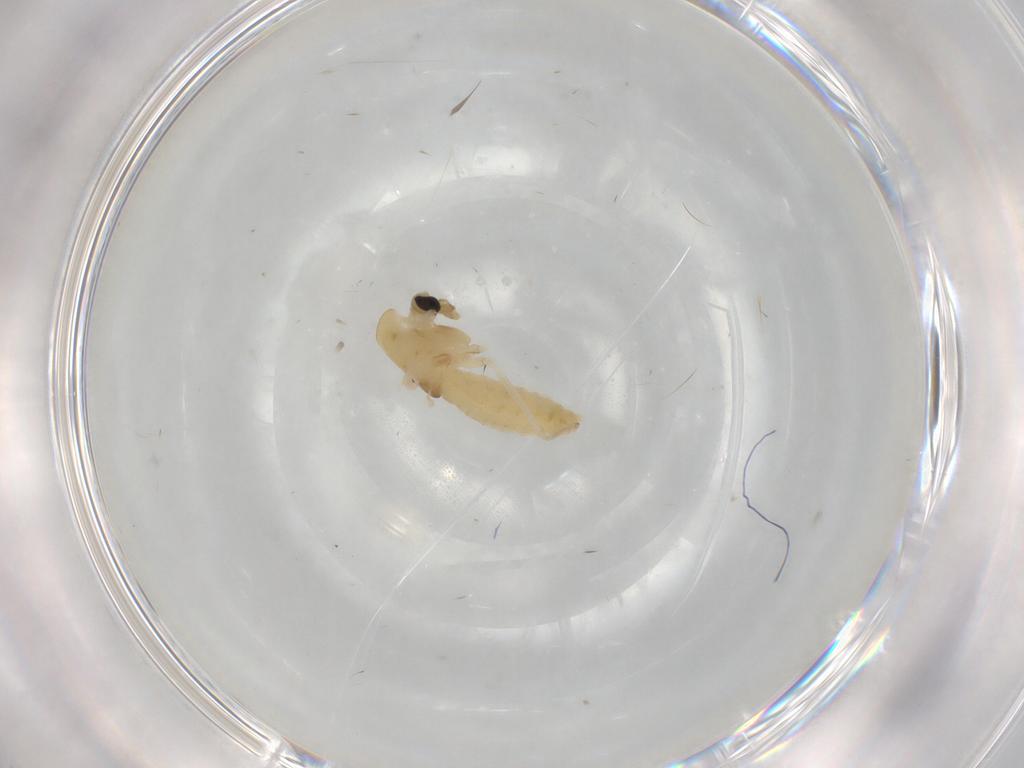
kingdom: Animalia
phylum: Arthropoda
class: Insecta
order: Diptera
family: Chironomidae
